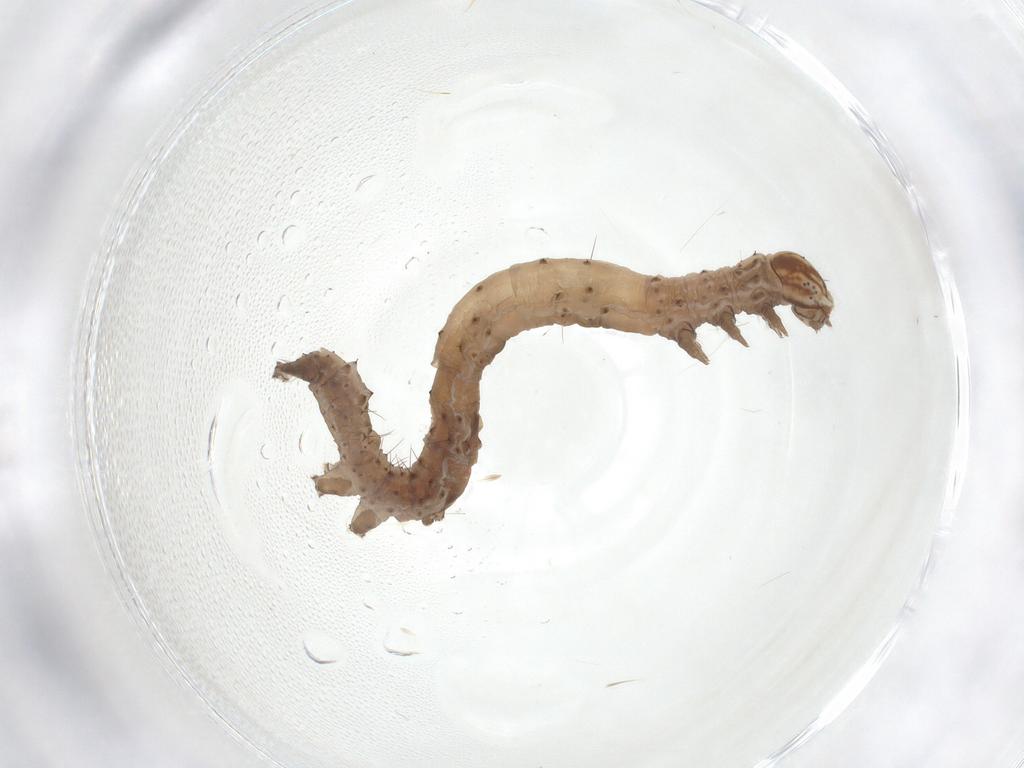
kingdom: Animalia
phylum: Arthropoda
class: Insecta
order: Lepidoptera
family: Erebidae
